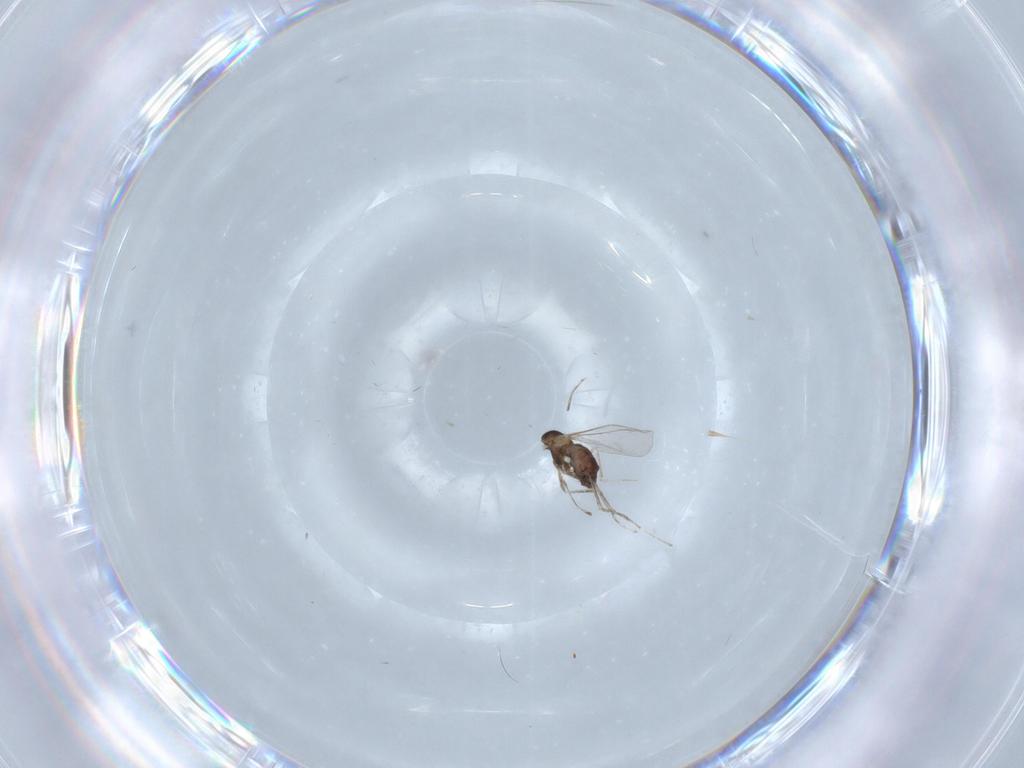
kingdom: Animalia
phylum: Arthropoda
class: Insecta
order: Diptera
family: Cecidomyiidae
